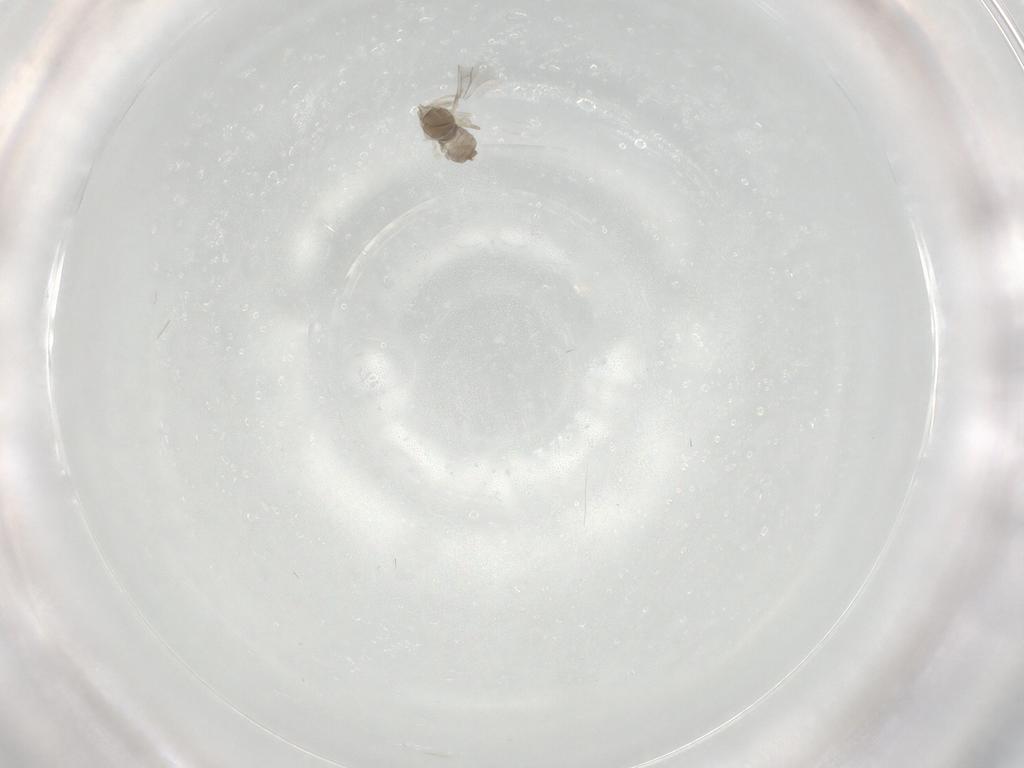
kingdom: Animalia
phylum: Arthropoda
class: Insecta
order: Diptera
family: Cecidomyiidae
